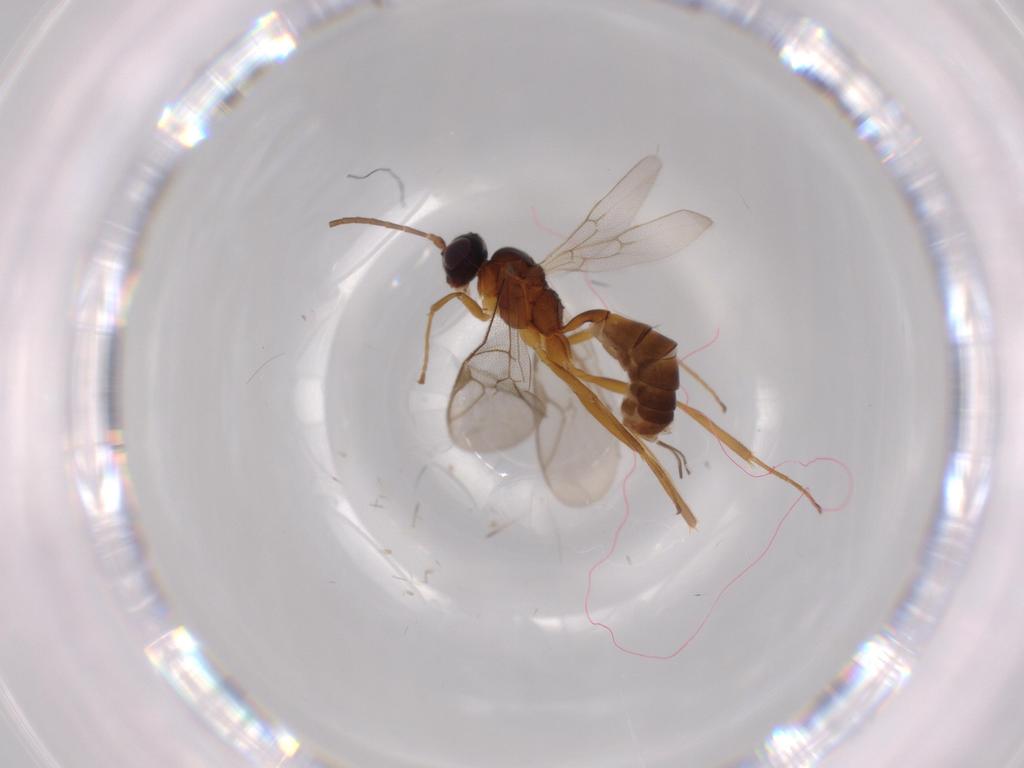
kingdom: Animalia
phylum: Arthropoda
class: Insecta
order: Hymenoptera
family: Ichneumonidae
